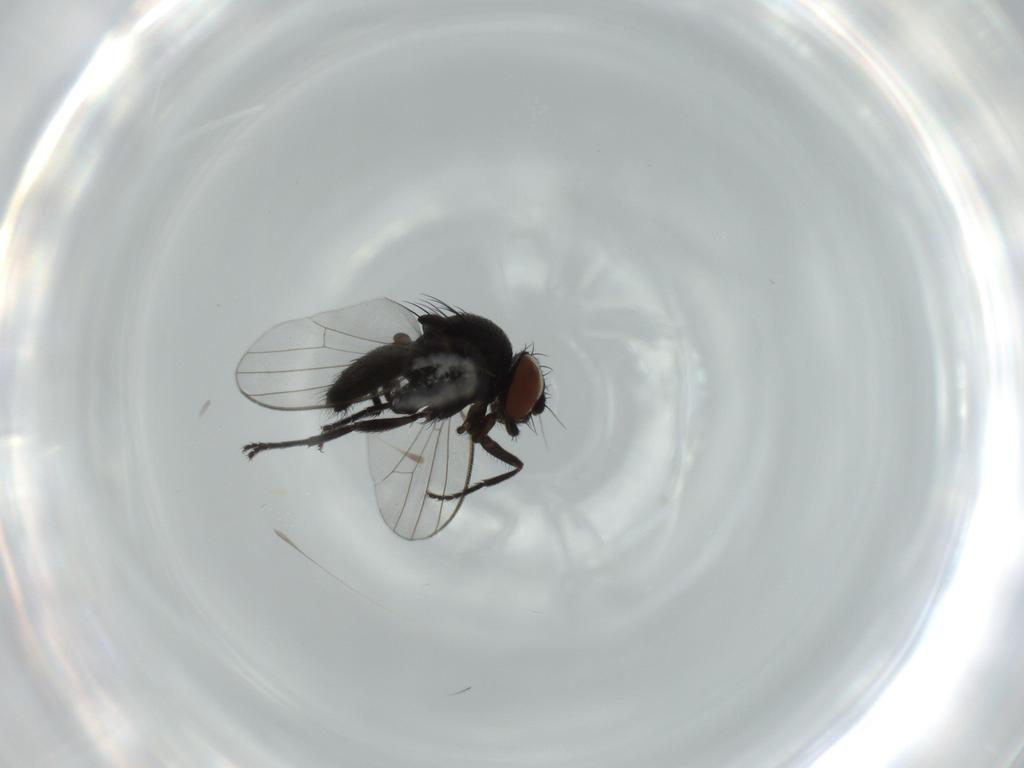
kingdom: Animalia
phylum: Arthropoda
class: Insecta
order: Diptera
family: Milichiidae
